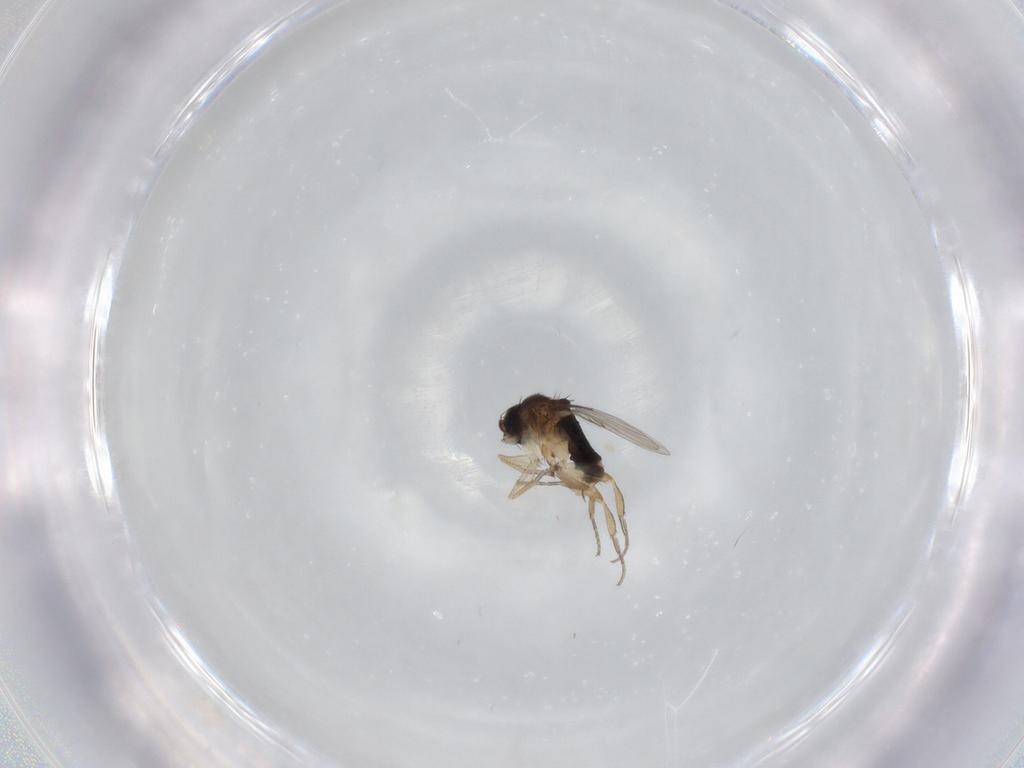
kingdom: Animalia
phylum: Arthropoda
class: Insecta
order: Diptera
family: Phoridae
